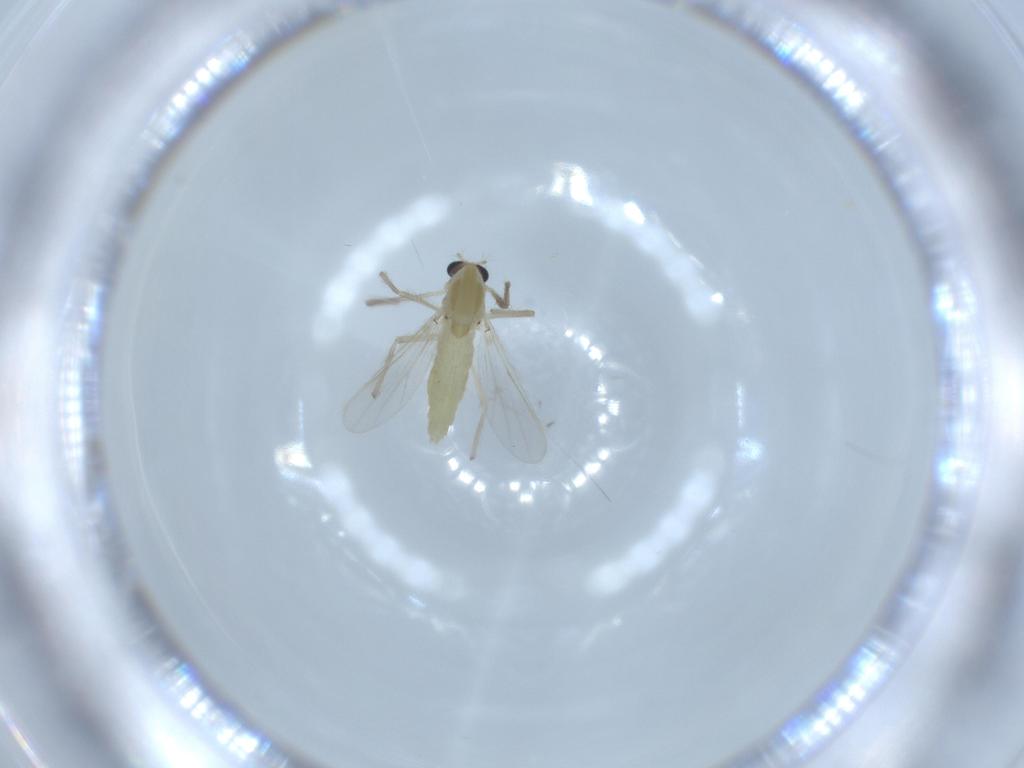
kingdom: Animalia
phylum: Arthropoda
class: Insecta
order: Diptera
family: Chironomidae
